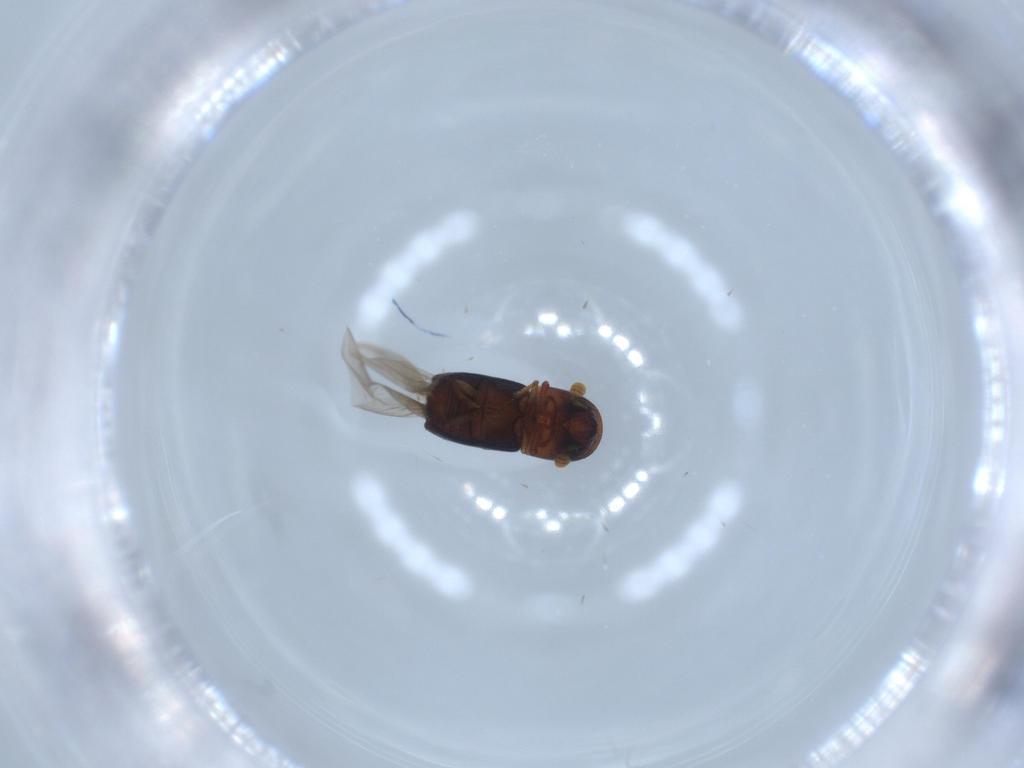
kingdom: Animalia
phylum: Arthropoda
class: Insecta
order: Coleoptera
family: Curculionidae
